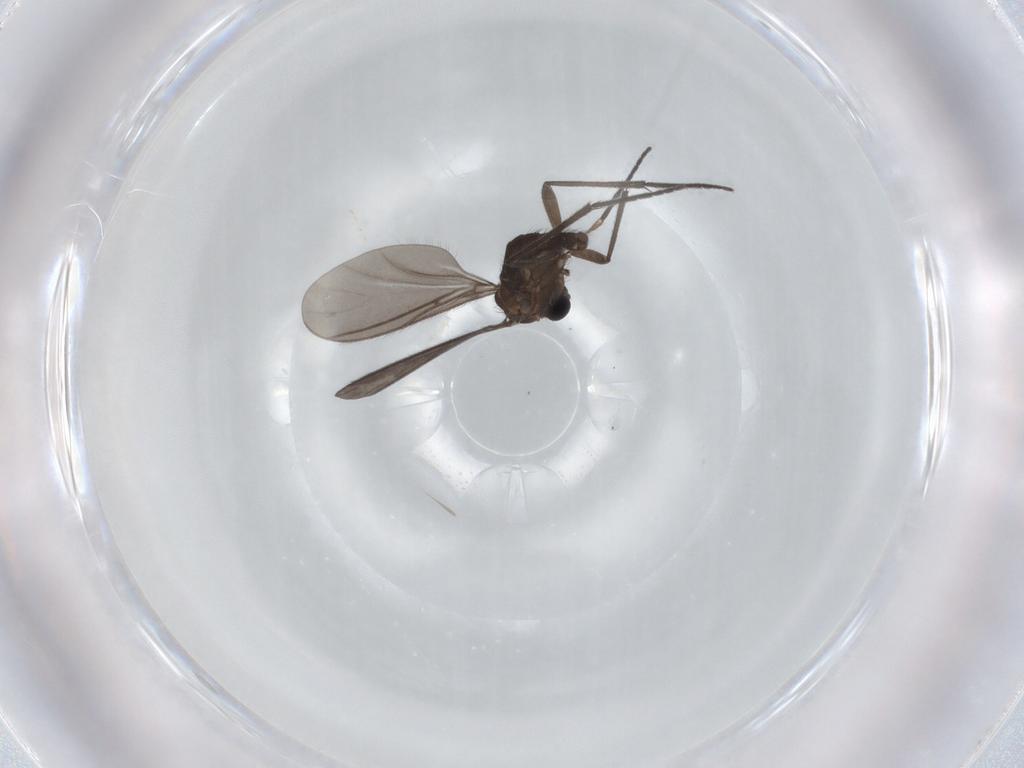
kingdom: Animalia
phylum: Arthropoda
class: Insecta
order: Diptera
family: Sciaridae
